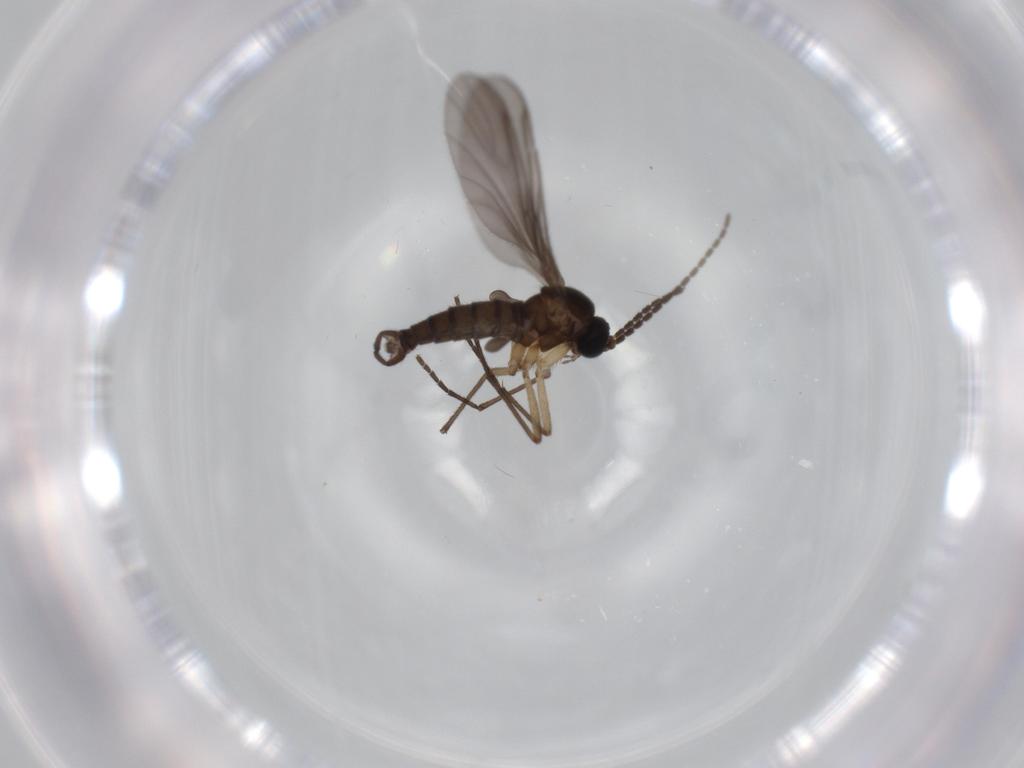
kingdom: Animalia
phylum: Arthropoda
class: Insecta
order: Diptera
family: Sciaridae
